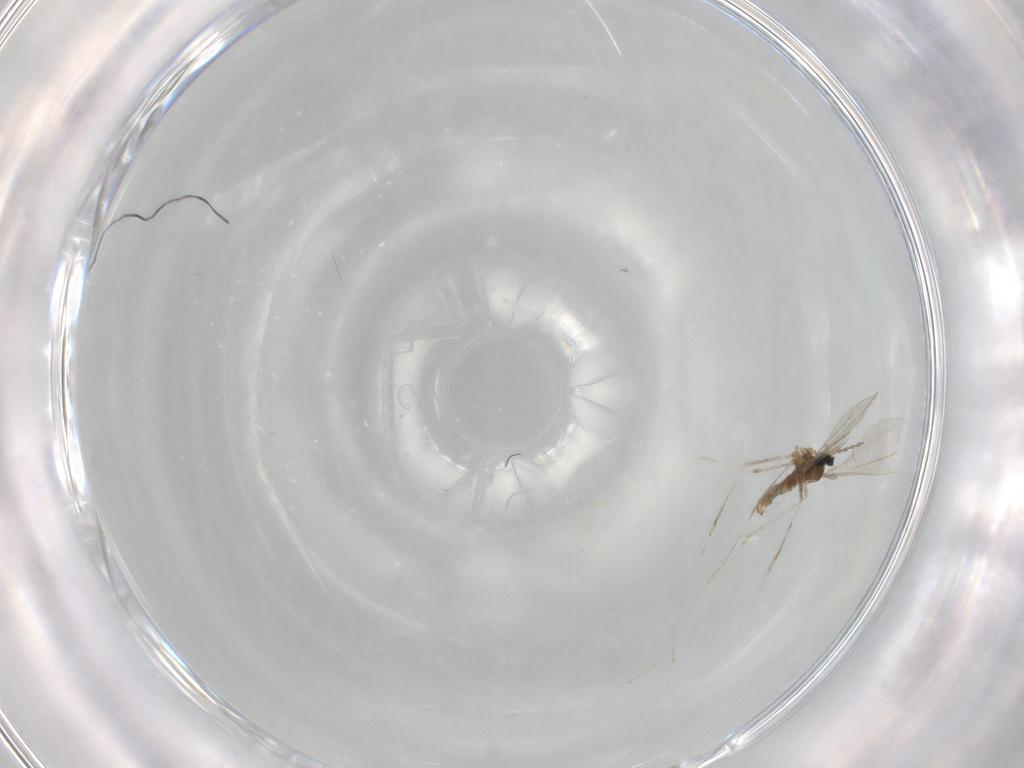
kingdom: Animalia
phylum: Arthropoda
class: Insecta
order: Diptera
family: Cecidomyiidae
